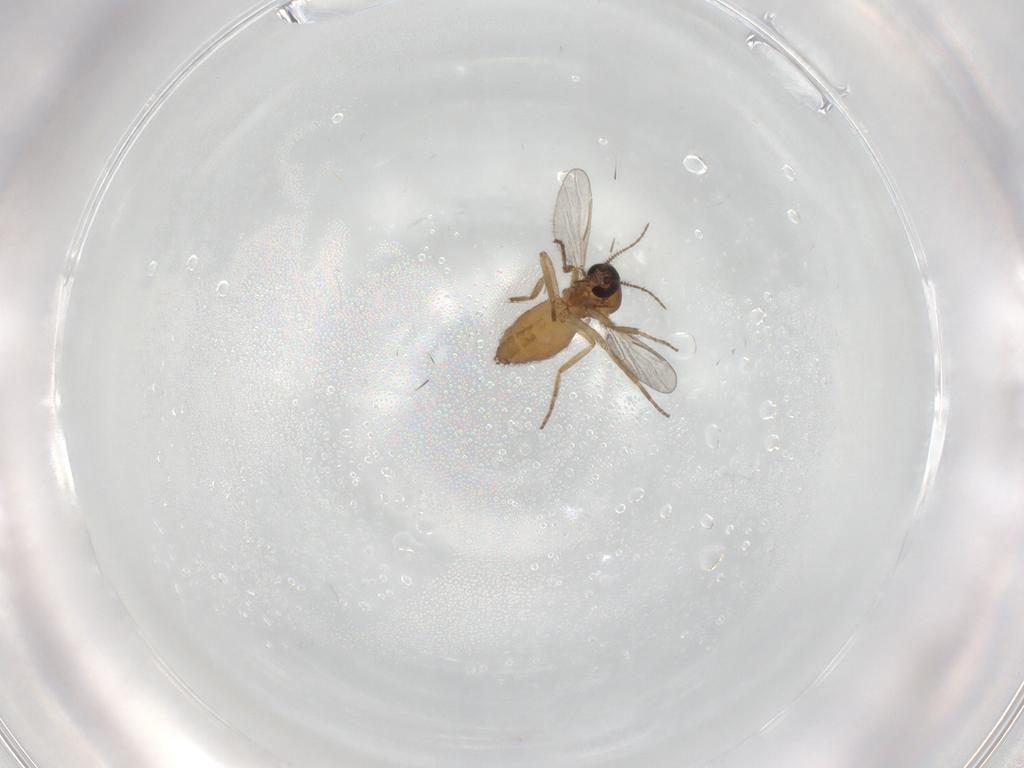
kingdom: Animalia
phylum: Arthropoda
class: Insecta
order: Diptera
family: Ceratopogonidae
